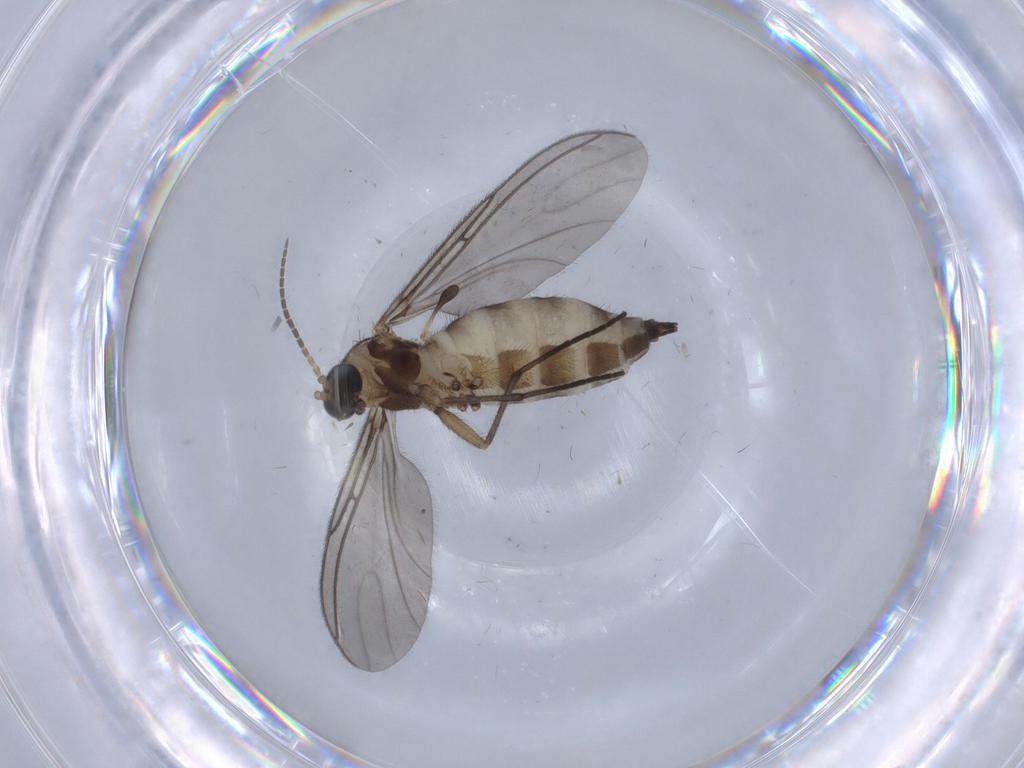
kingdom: Animalia
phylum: Arthropoda
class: Insecta
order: Diptera
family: Sciaridae
